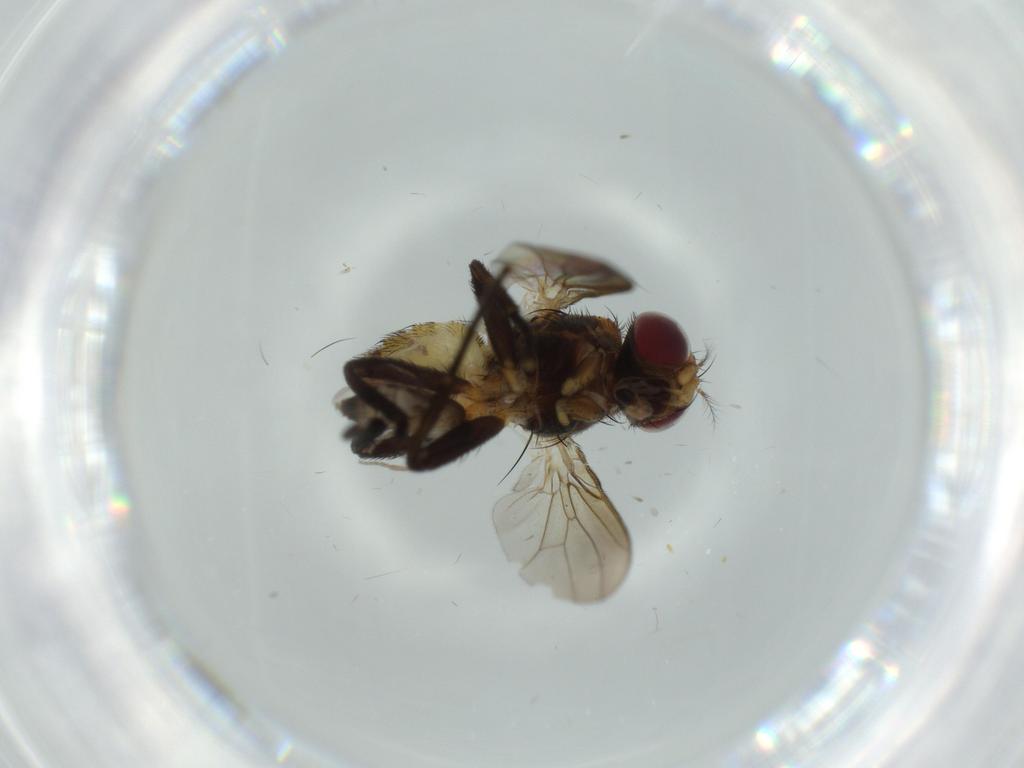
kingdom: Animalia
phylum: Arthropoda
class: Insecta
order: Diptera
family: Anthomyiidae
